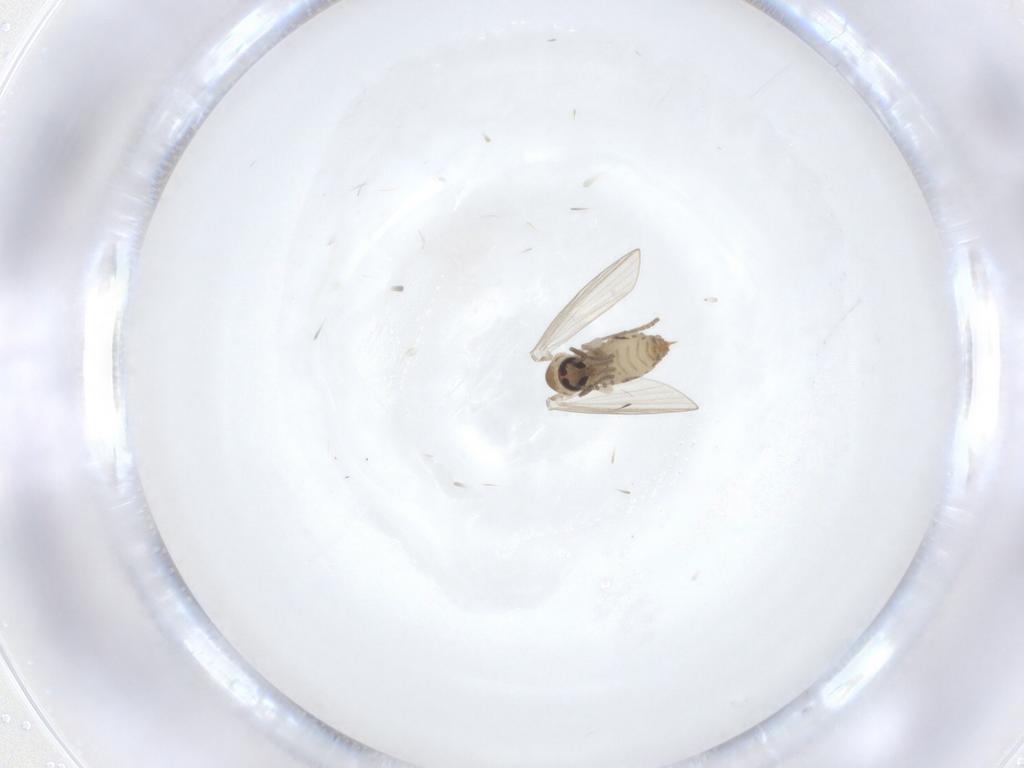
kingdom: Animalia
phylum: Arthropoda
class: Insecta
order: Diptera
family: Psychodidae
